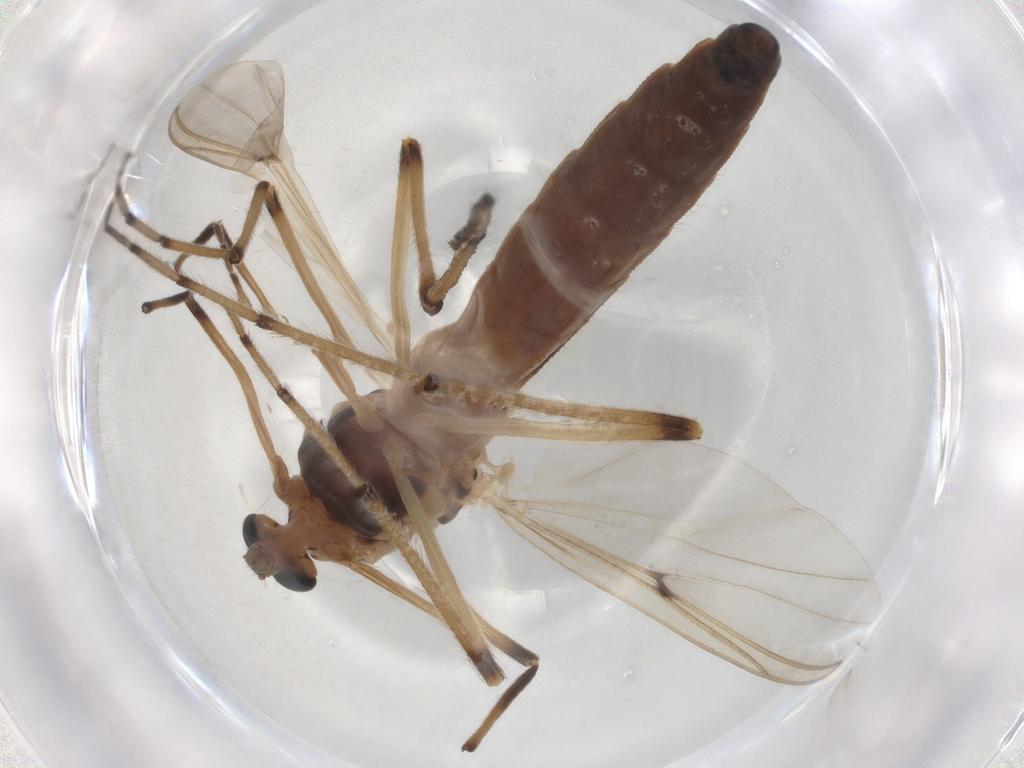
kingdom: Animalia
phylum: Arthropoda
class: Insecta
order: Diptera
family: Chironomidae
